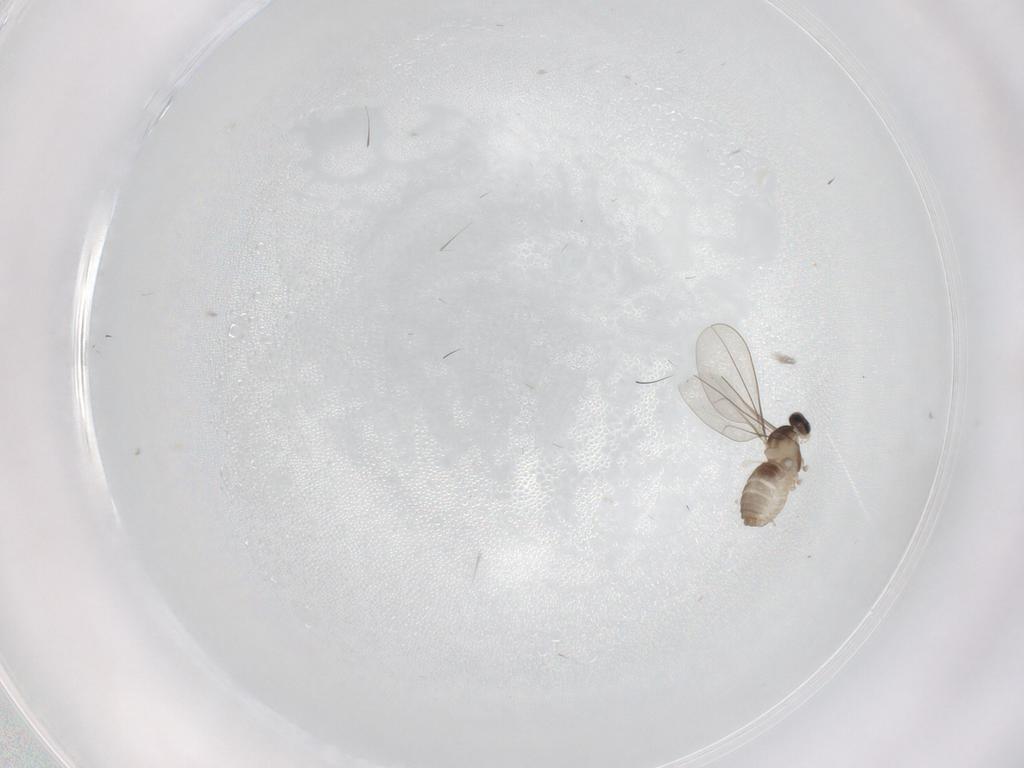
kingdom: Animalia
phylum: Arthropoda
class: Insecta
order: Diptera
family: Cecidomyiidae
